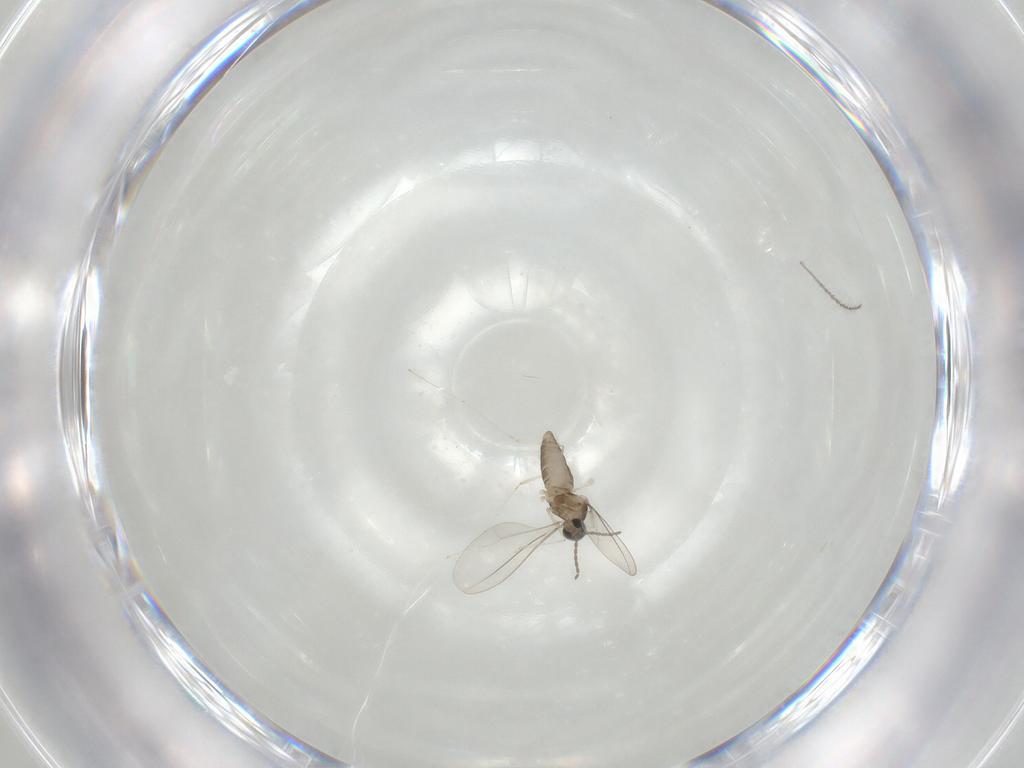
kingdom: Animalia
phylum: Arthropoda
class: Insecta
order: Diptera
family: Cecidomyiidae
